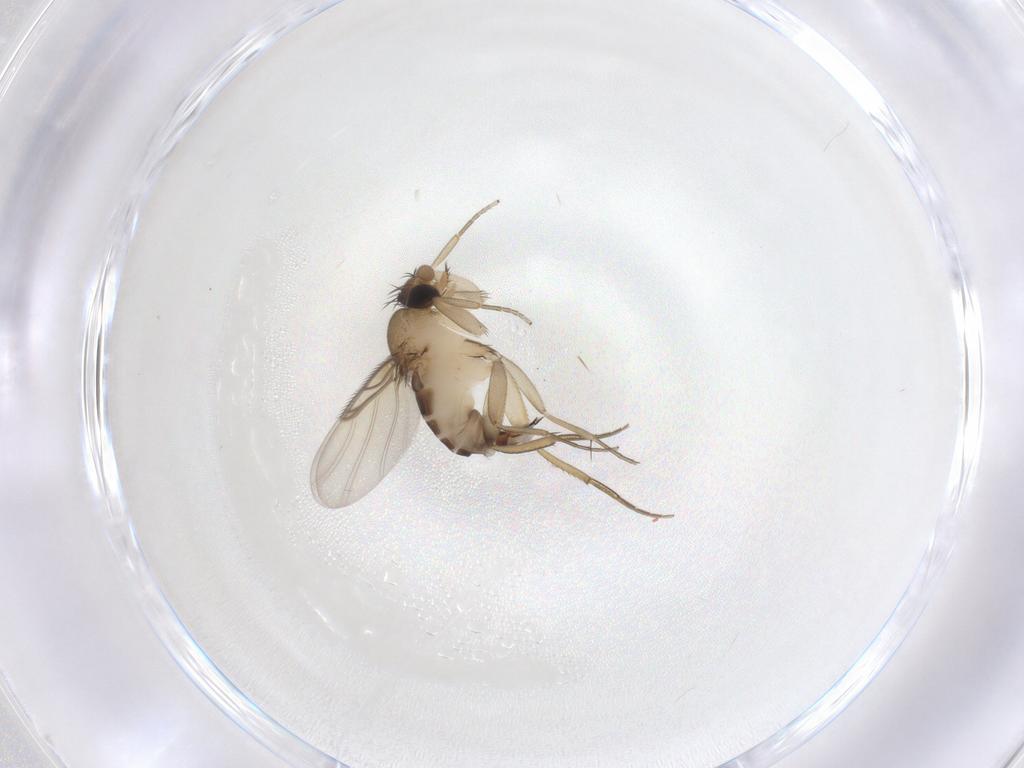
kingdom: Animalia
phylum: Arthropoda
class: Insecta
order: Diptera
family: Phoridae
